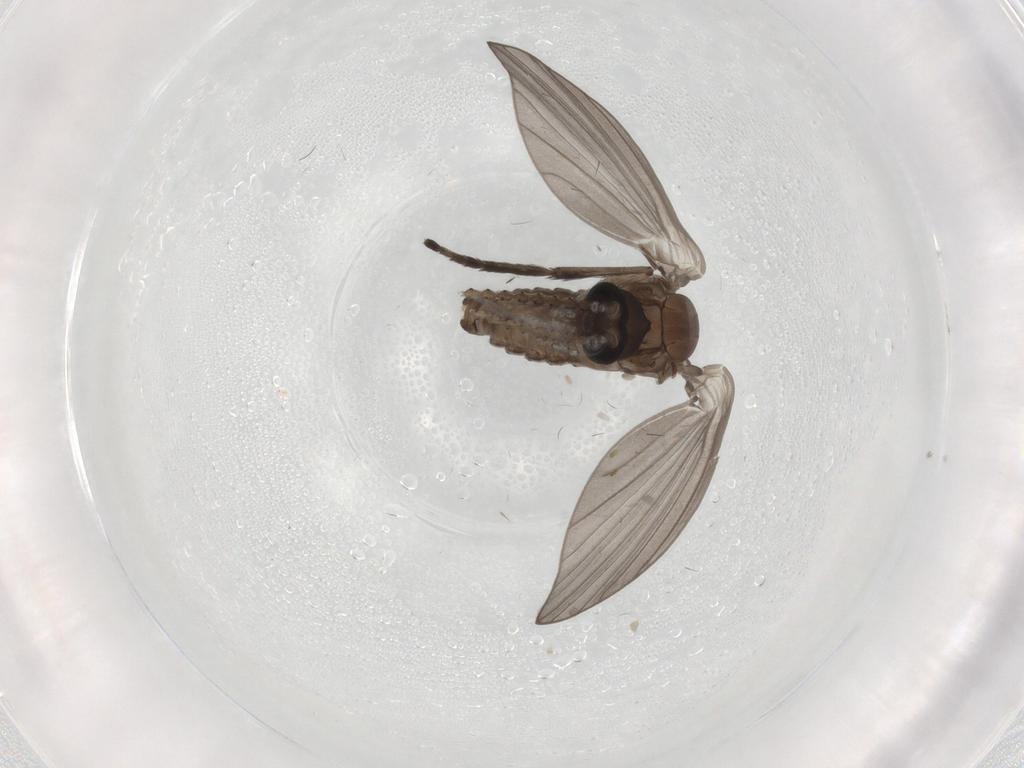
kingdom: Animalia
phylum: Arthropoda
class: Insecta
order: Diptera
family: Psychodidae
